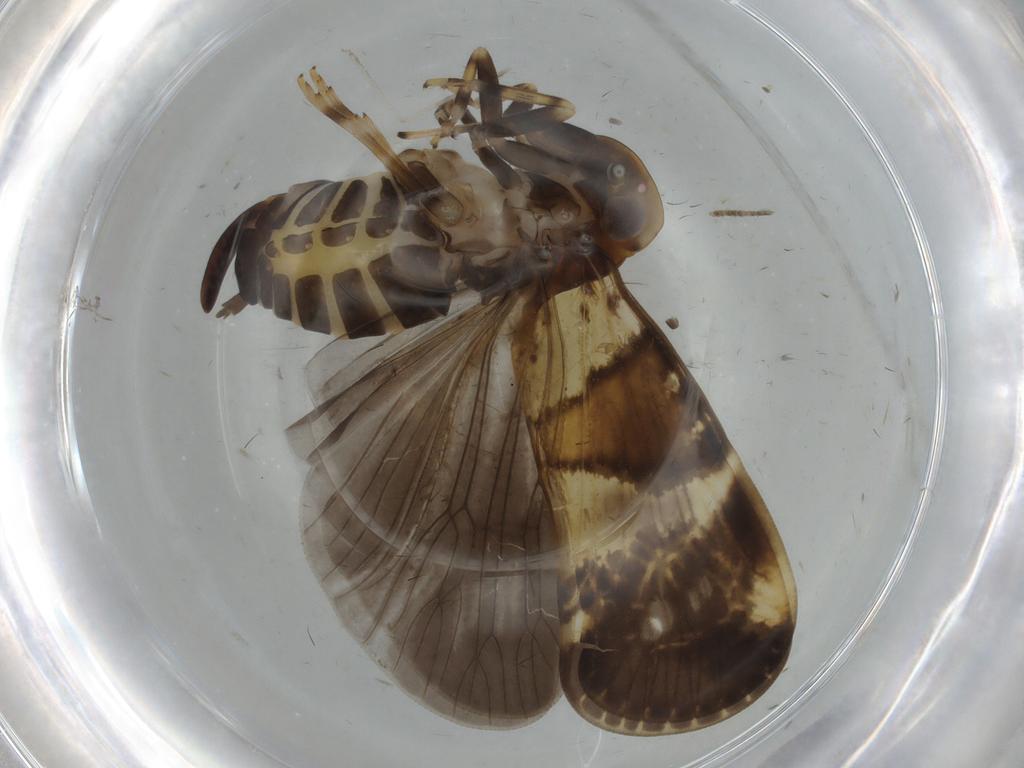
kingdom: Animalia
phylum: Arthropoda
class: Insecta
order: Hemiptera
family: Cixiidae
